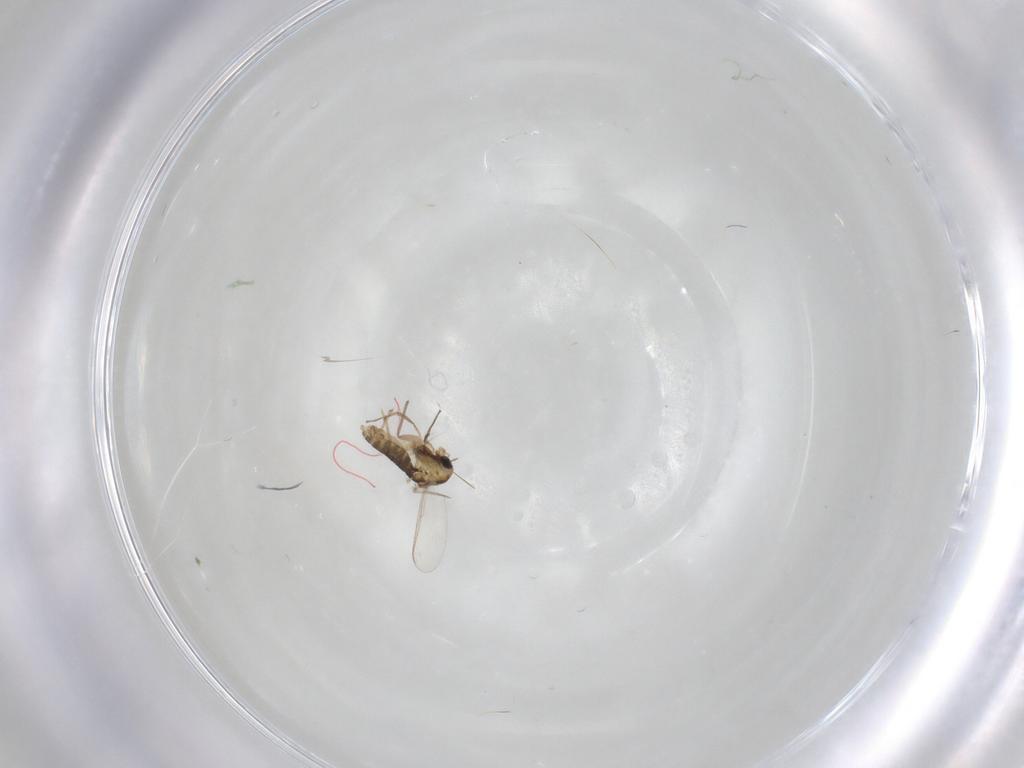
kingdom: Animalia
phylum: Arthropoda
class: Insecta
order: Diptera
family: Chironomidae
